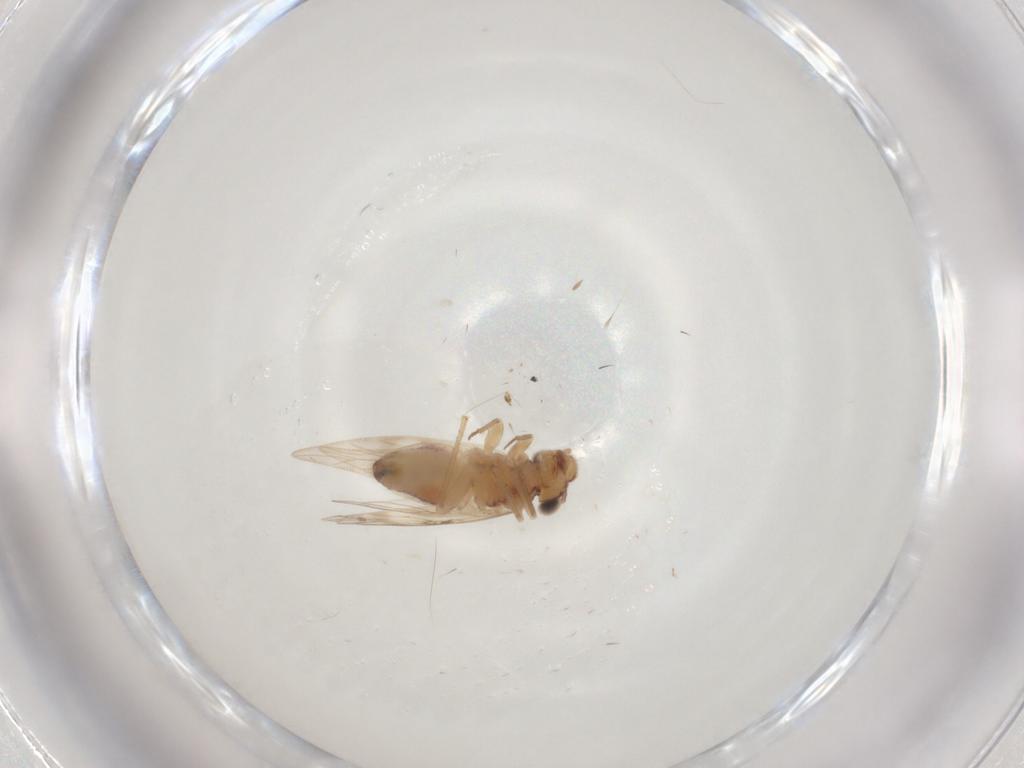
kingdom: Animalia
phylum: Arthropoda
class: Insecta
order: Psocodea
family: Lepidopsocidae
